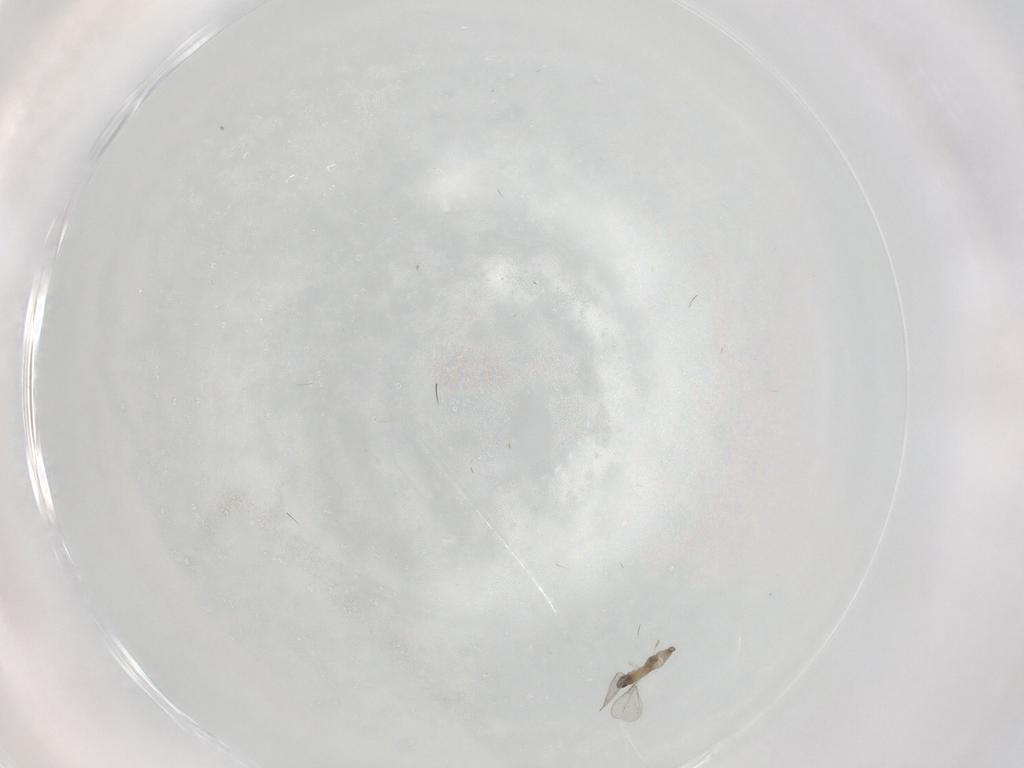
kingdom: Animalia
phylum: Arthropoda
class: Insecta
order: Diptera
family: Cecidomyiidae
